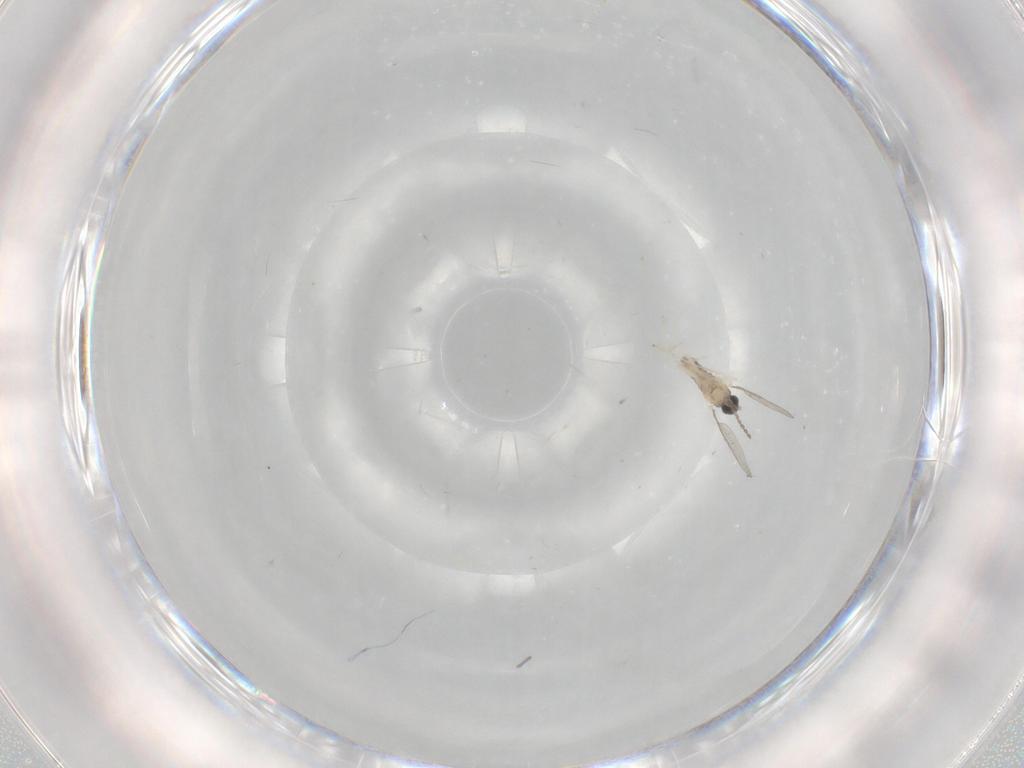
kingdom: Animalia
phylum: Arthropoda
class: Insecta
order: Diptera
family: Cecidomyiidae
